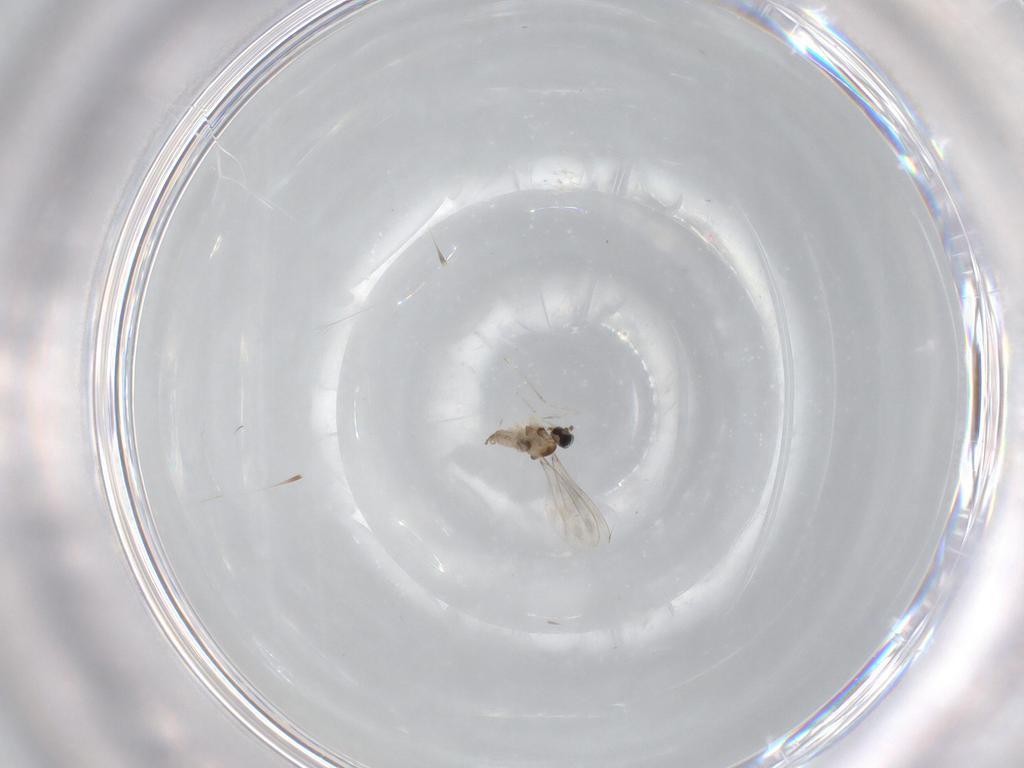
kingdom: Animalia
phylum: Arthropoda
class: Insecta
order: Diptera
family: Cecidomyiidae
